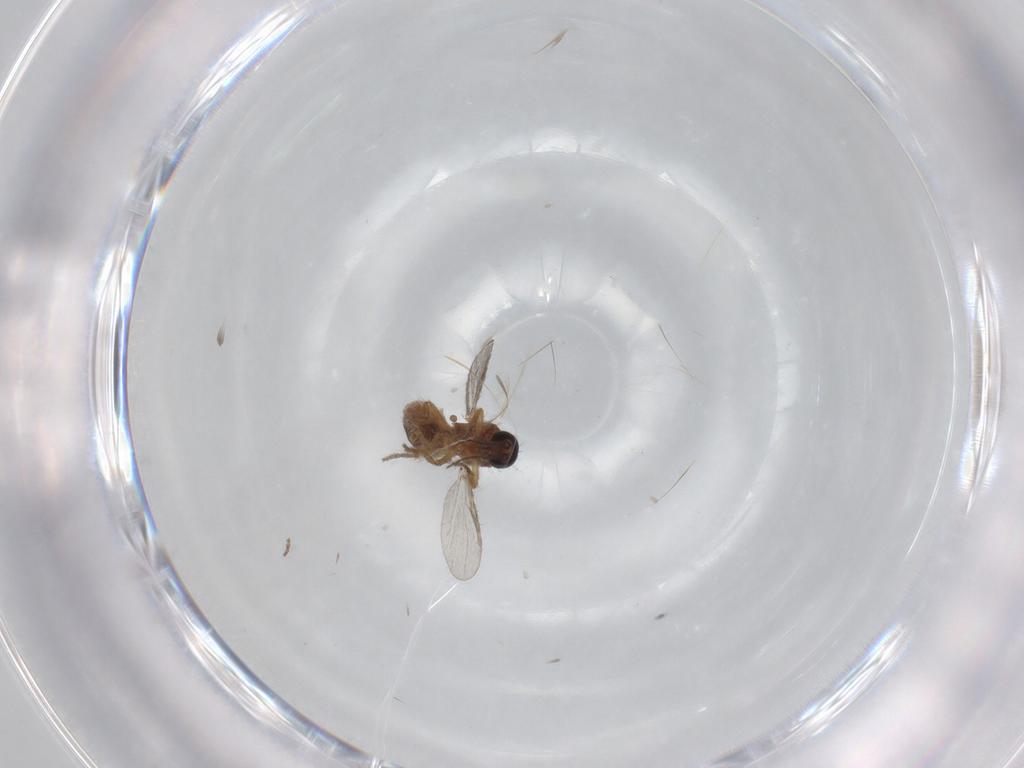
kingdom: Animalia
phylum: Arthropoda
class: Insecta
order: Diptera
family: Ceratopogonidae
